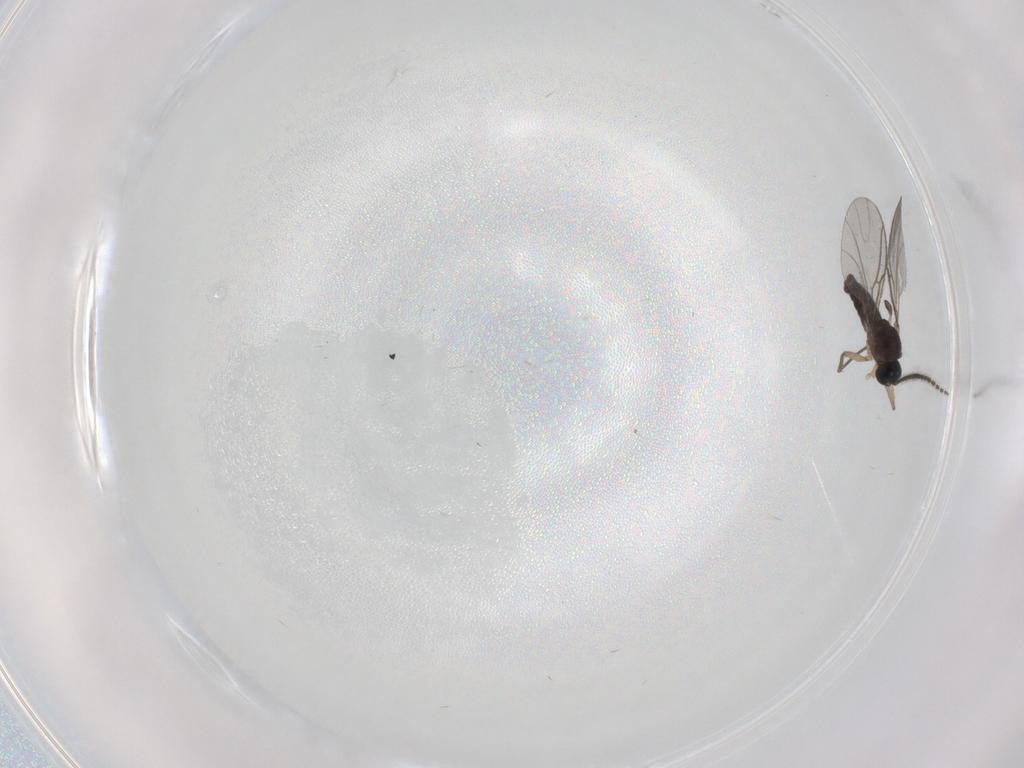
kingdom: Animalia
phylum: Arthropoda
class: Insecta
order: Diptera
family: Sciaridae
